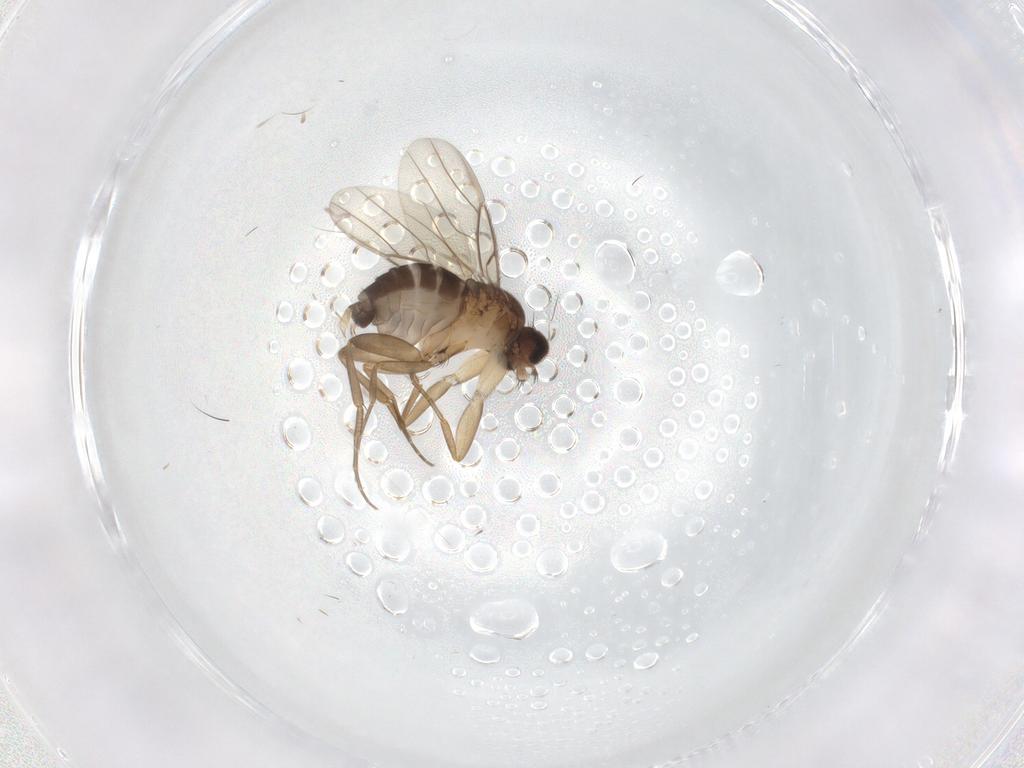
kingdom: Animalia
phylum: Arthropoda
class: Insecta
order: Diptera
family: Phoridae
